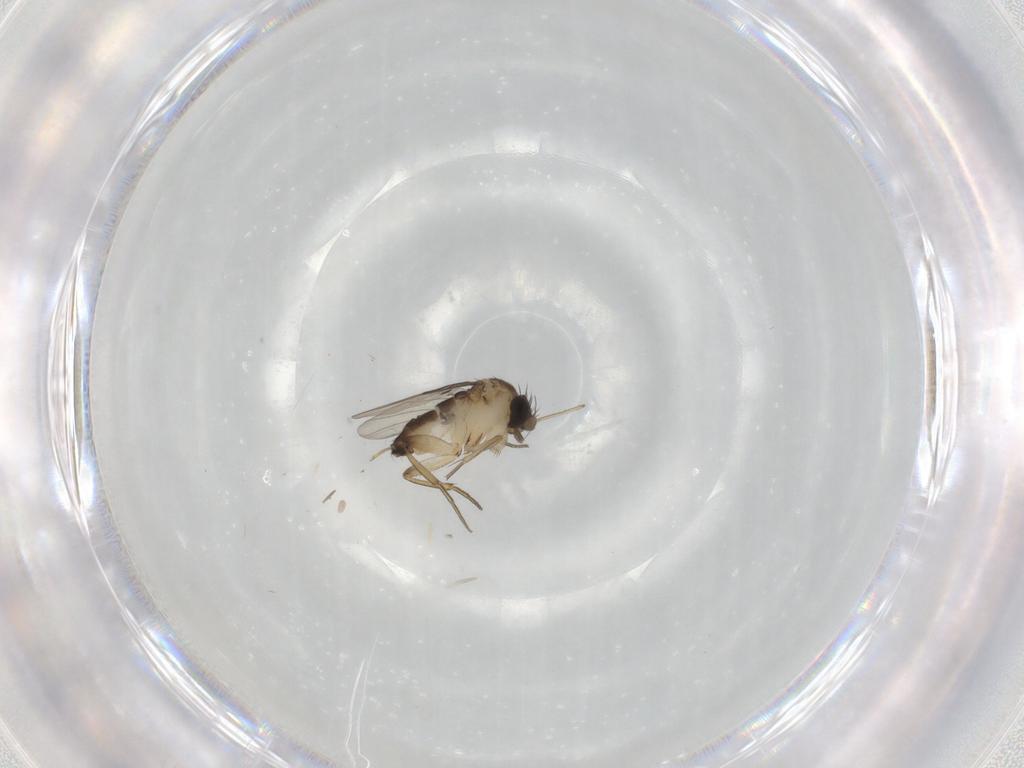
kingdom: Animalia
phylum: Arthropoda
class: Insecta
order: Diptera
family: Phoridae
